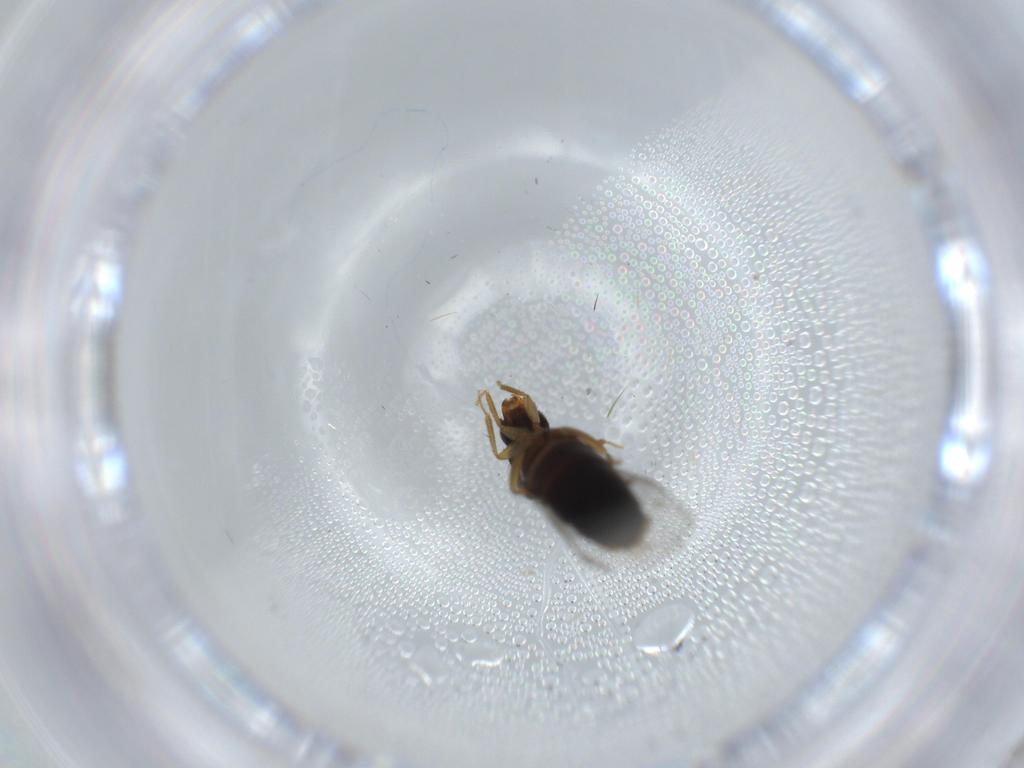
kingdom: Animalia
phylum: Arthropoda
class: Insecta
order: Coleoptera
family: Staphylinidae
